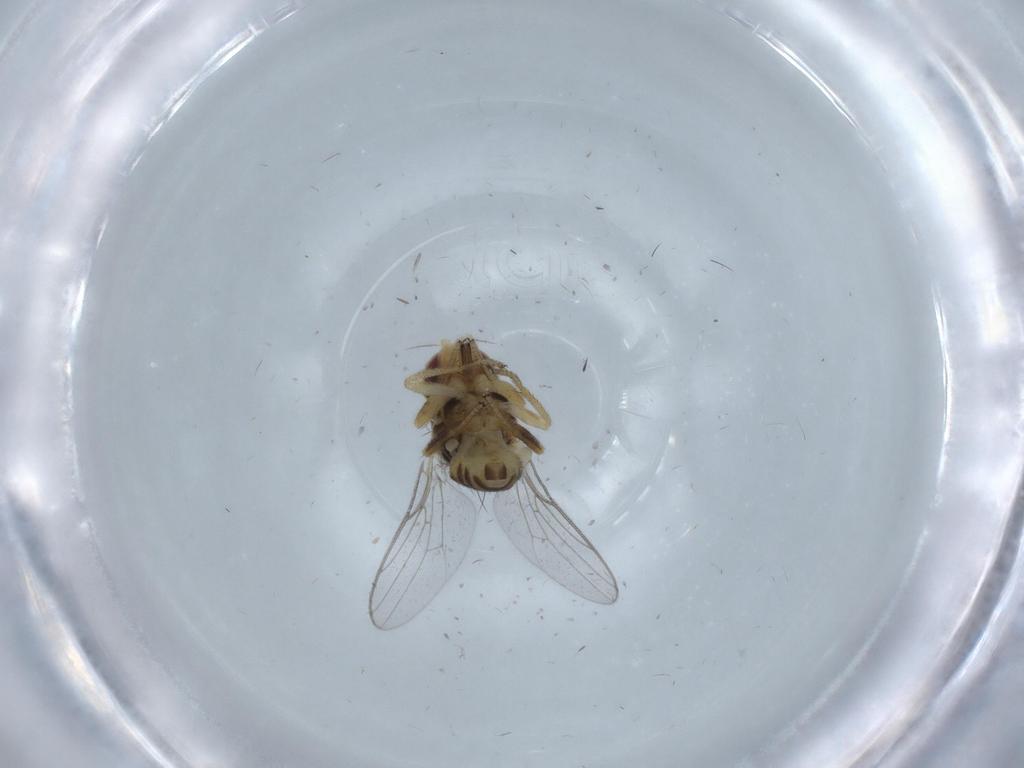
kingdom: Animalia
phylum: Arthropoda
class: Insecta
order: Diptera
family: Chloropidae
